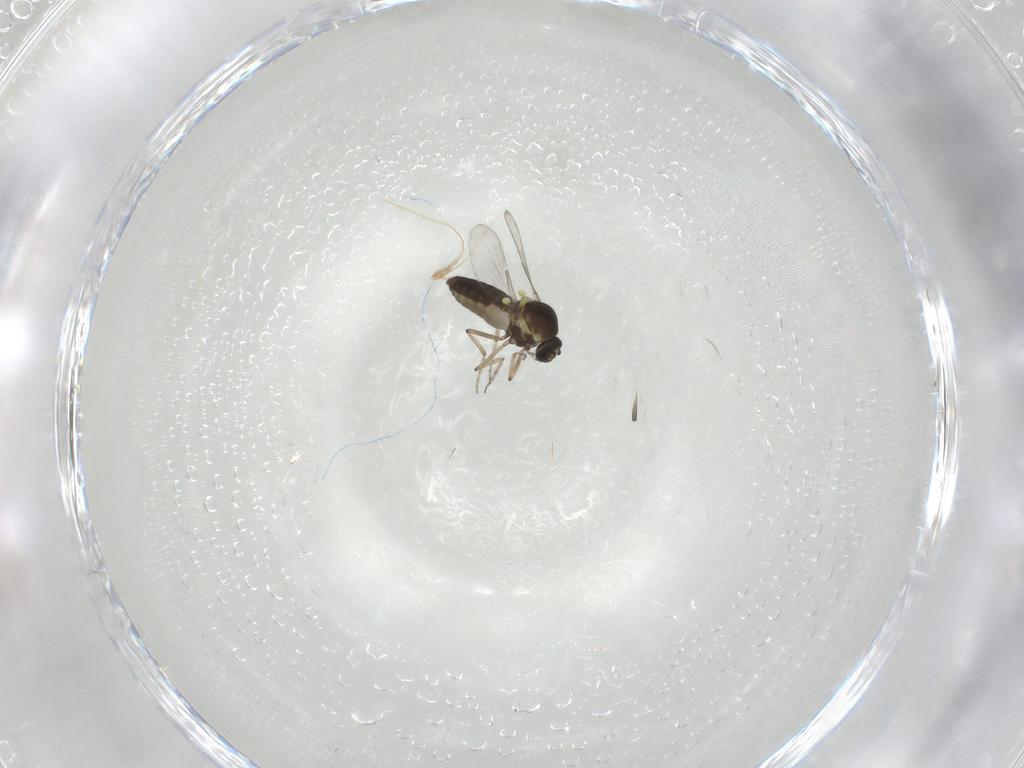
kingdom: Animalia
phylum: Arthropoda
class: Insecta
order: Diptera
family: Ceratopogonidae
